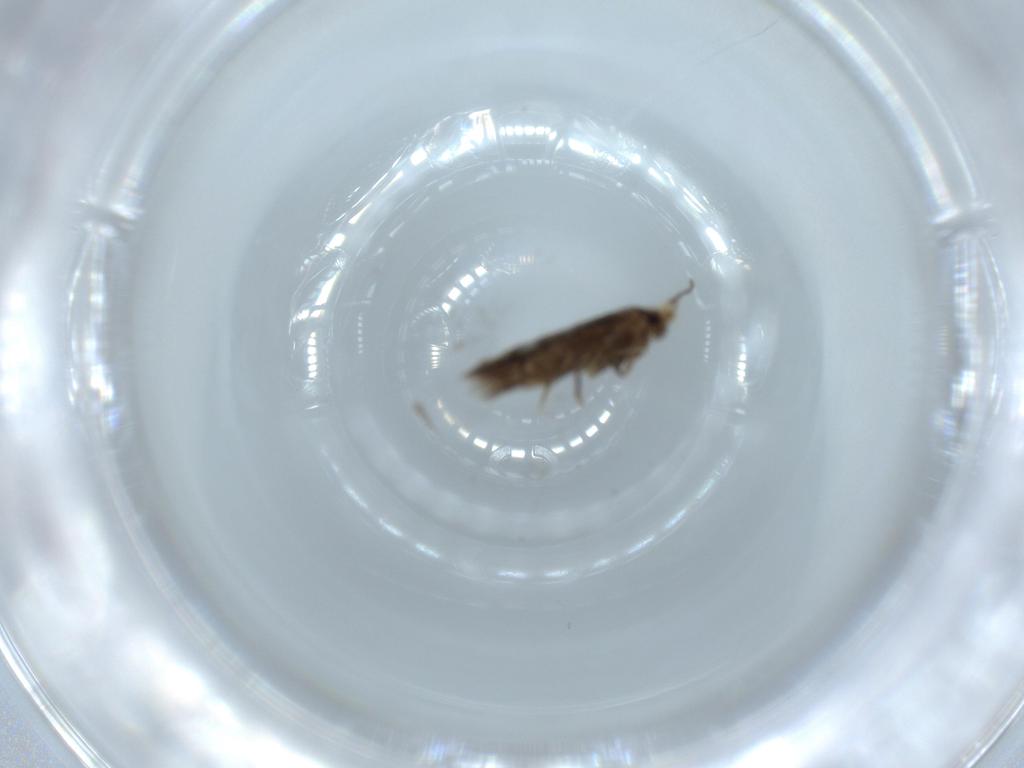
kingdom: Animalia
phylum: Arthropoda
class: Insecta
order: Lepidoptera
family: Nepticulidae
